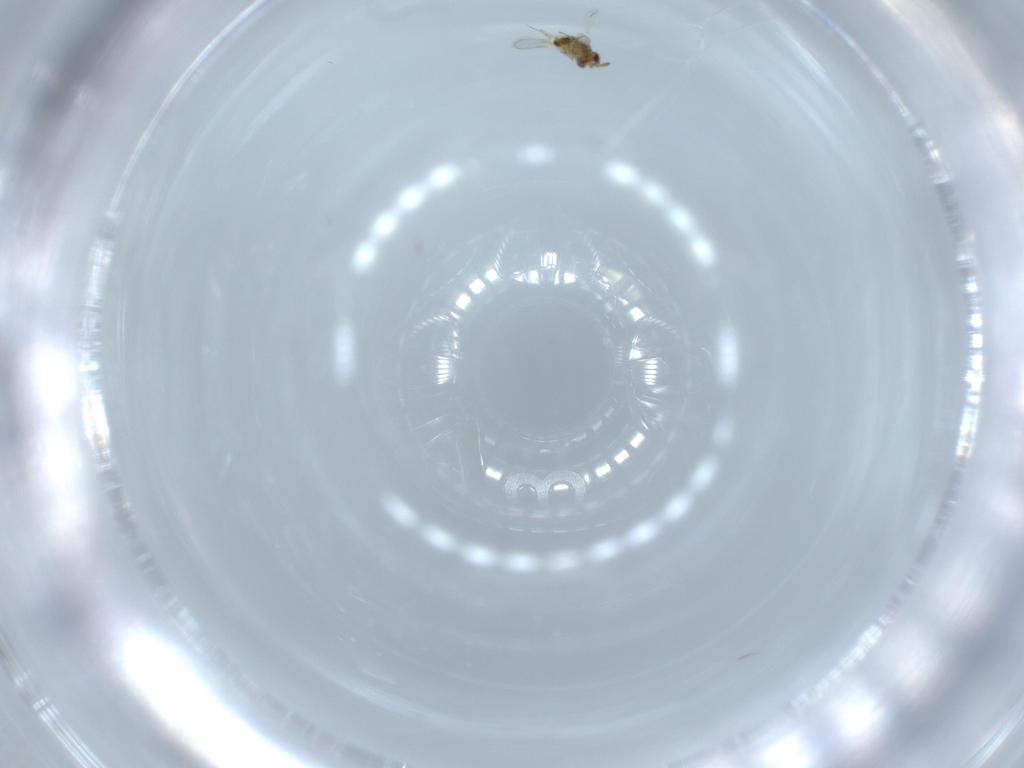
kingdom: Animalia
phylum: Arthropoda
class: Insecta
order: Hymenoptera
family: Aphelinidae
